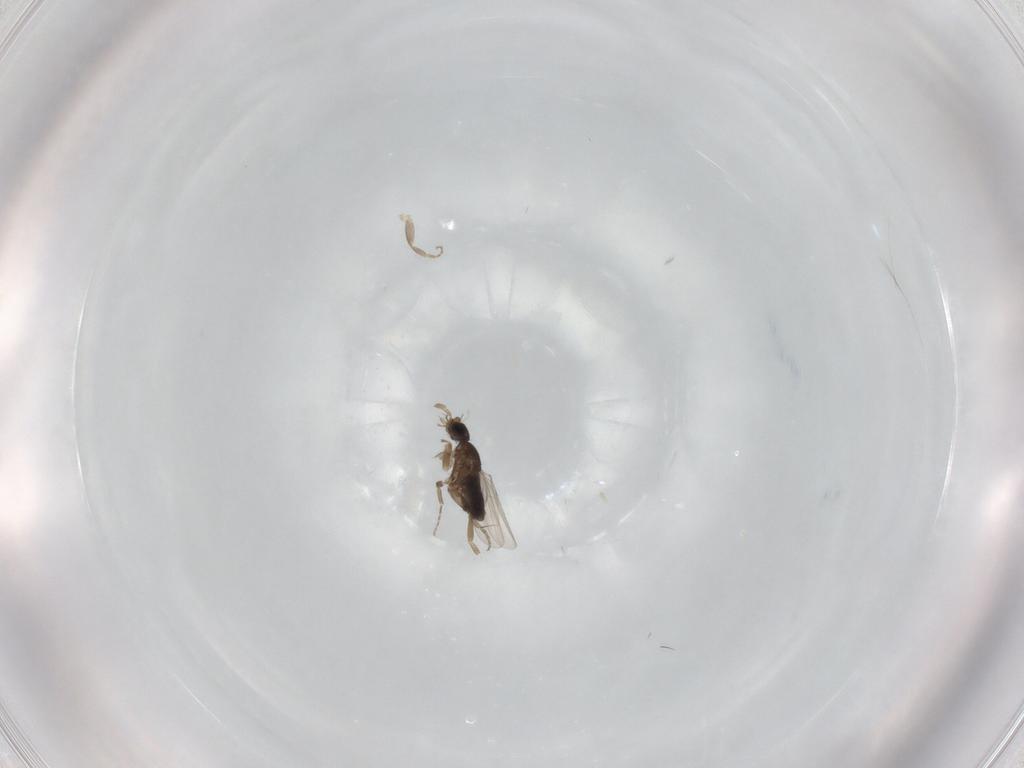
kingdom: Animalia
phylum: Arthropoda
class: Insecta
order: Diptera
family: Phoridae
